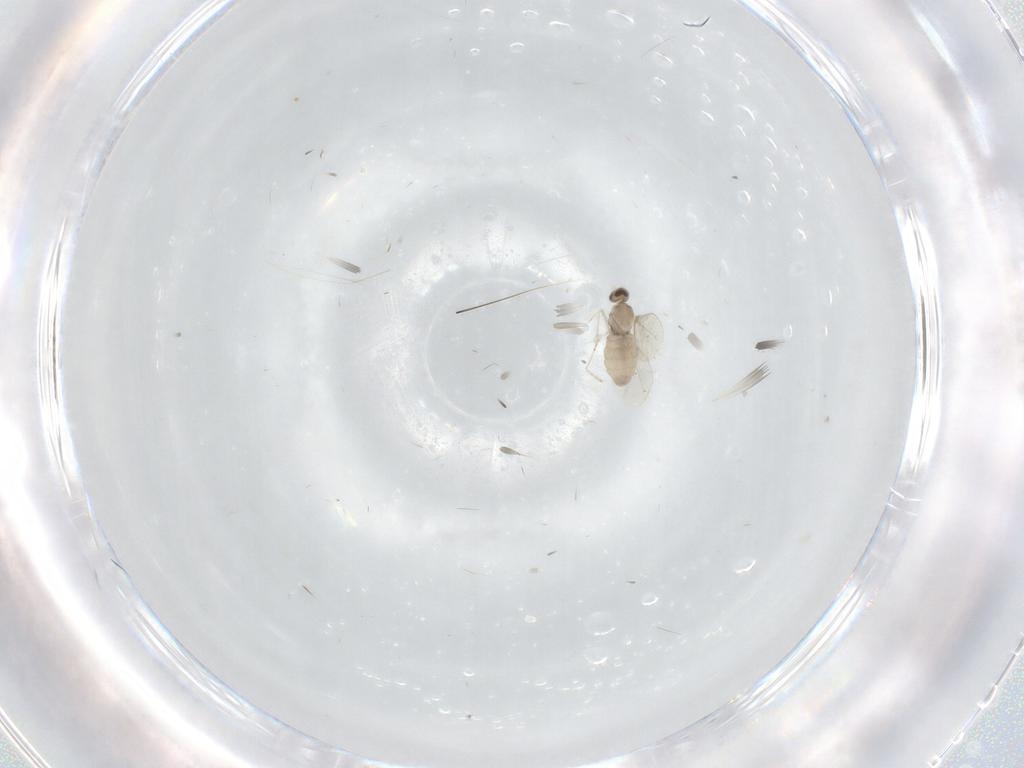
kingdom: Animalia
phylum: Arthropoda
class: Insecta
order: Diptera
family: Cecidomyiidae
